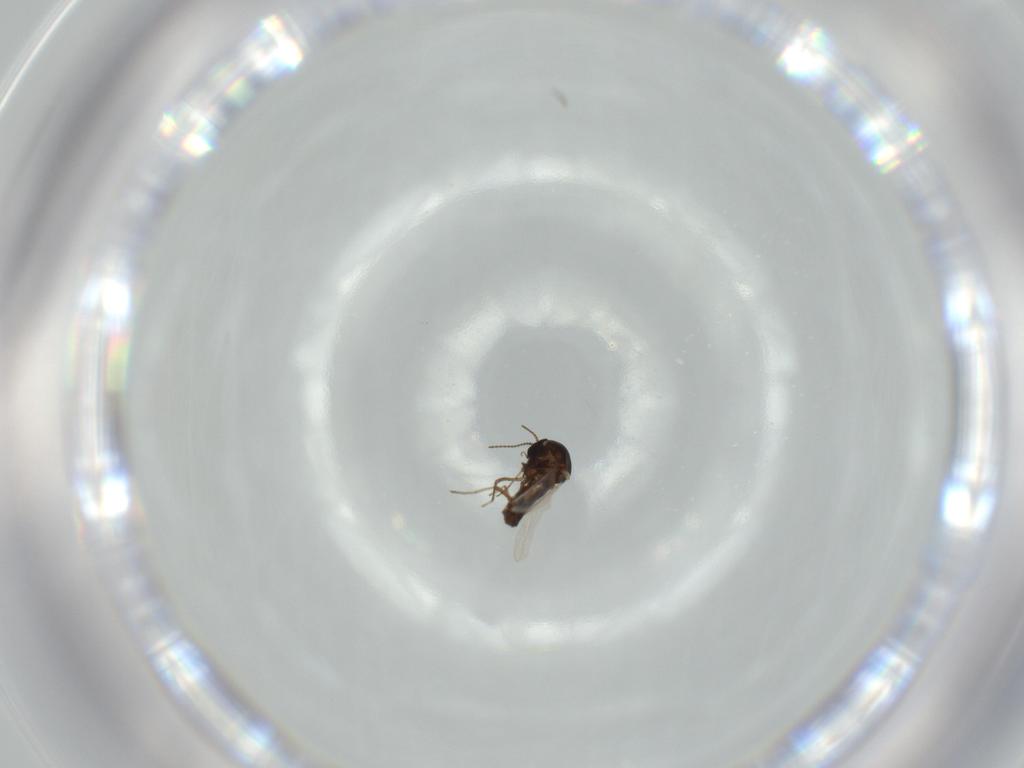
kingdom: Animalia
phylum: Arthropoda
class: Insecta
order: Diptera
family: Ceratopogonidae
